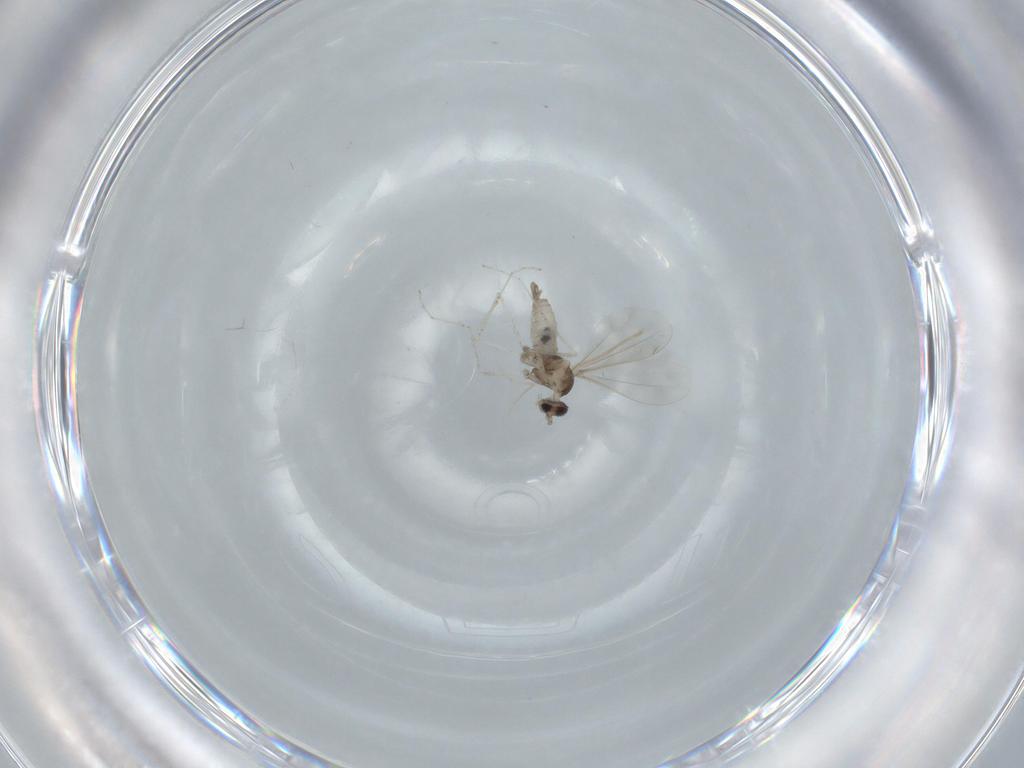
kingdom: Animalia
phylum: Arthropoda
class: Insecta
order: Diptera
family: Cecidomyiidae
